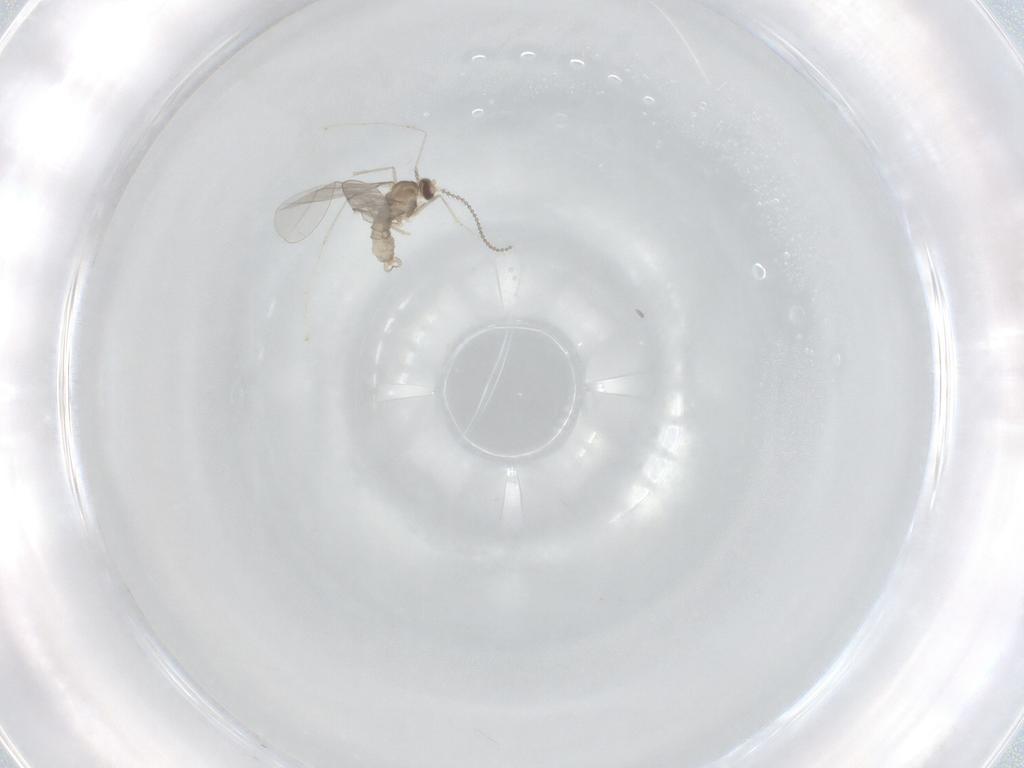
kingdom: Animalia
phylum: Arthropoda
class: Insecta
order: Diptera
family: Cecidomyiidae
